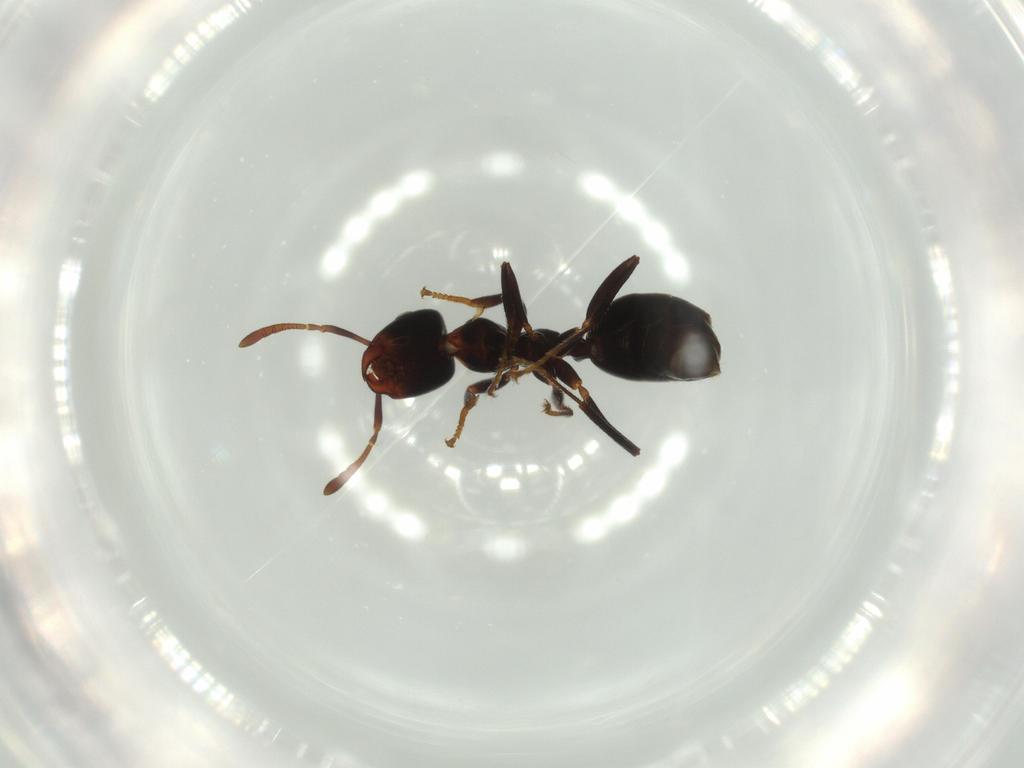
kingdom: Animalia
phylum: Arthropoda
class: Insecta
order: Hymenoptera
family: Formicidae
